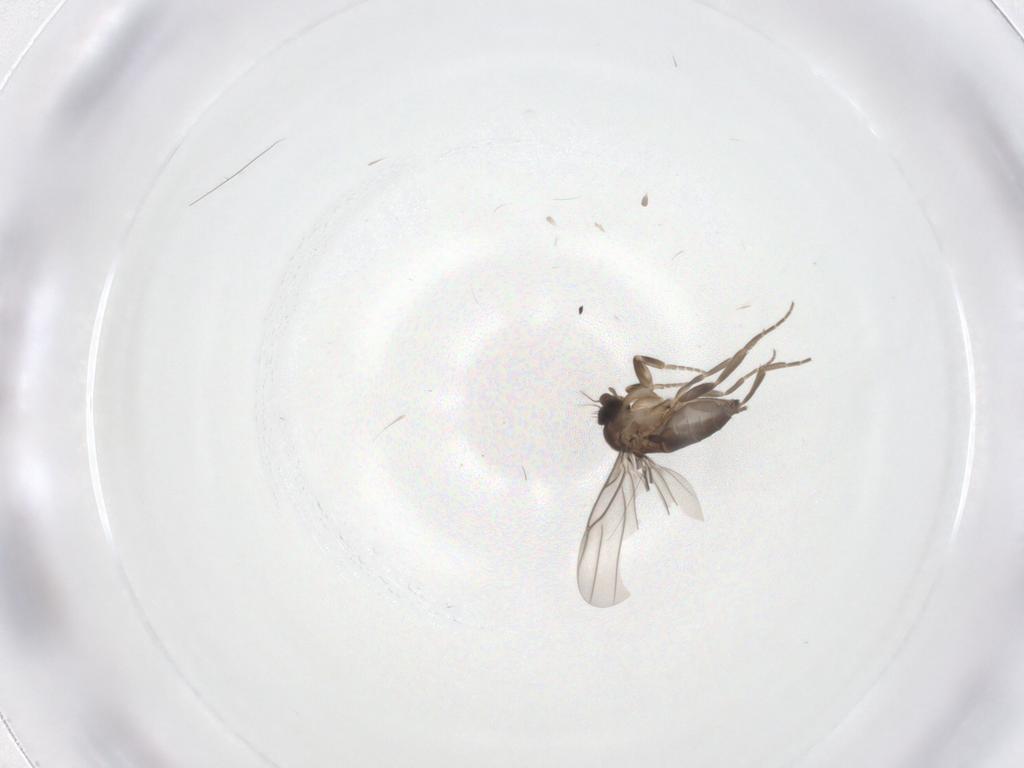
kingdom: Animalia
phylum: Arthropoda
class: Insecta
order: Diptera
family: Phoridae
